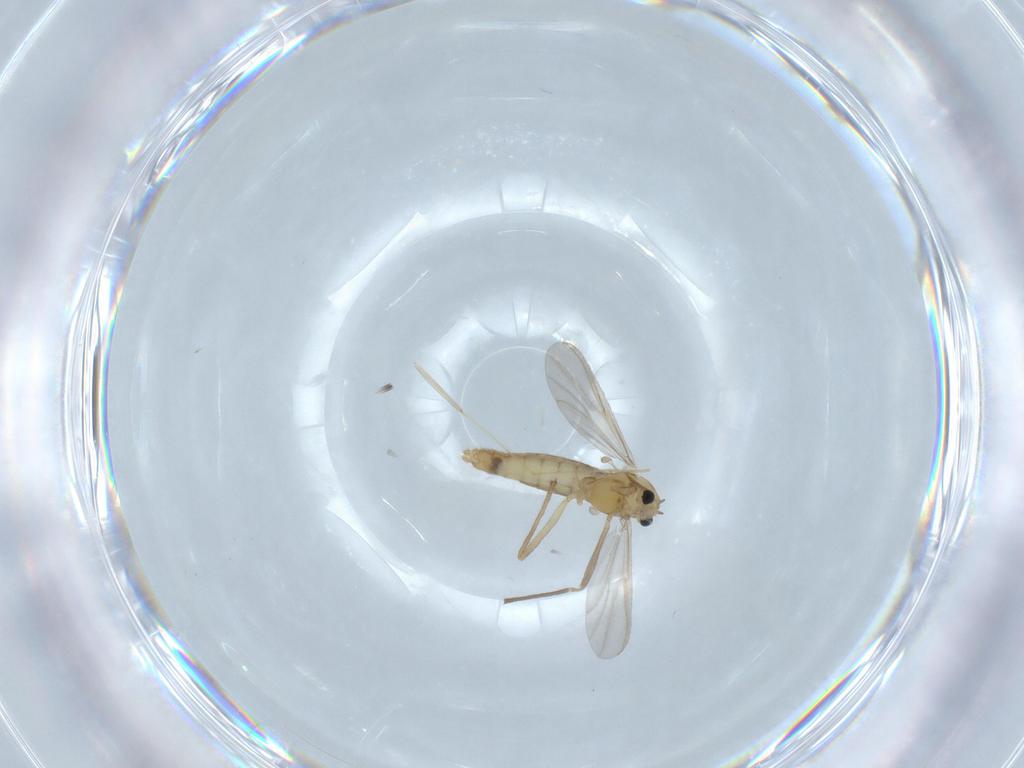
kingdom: Animalia
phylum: Arthropoda
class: Insecta
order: Diptera
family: Chironomidae
